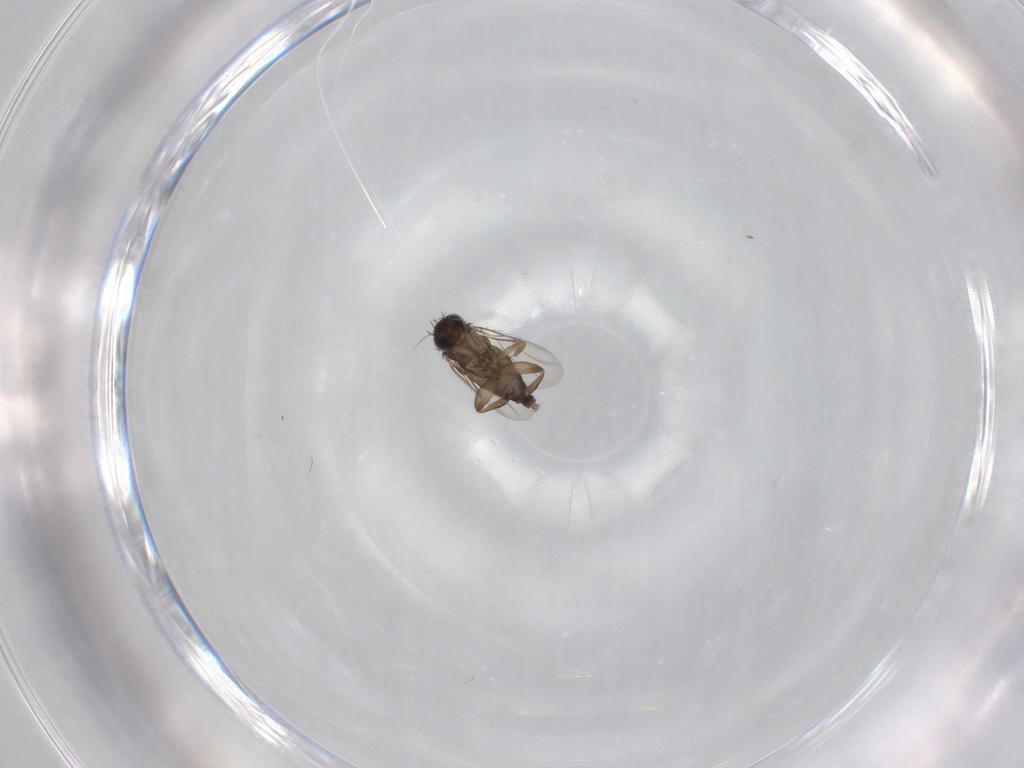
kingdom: Animalia
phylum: Arthropoda
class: Insecta
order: Diptera
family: Phoridae
